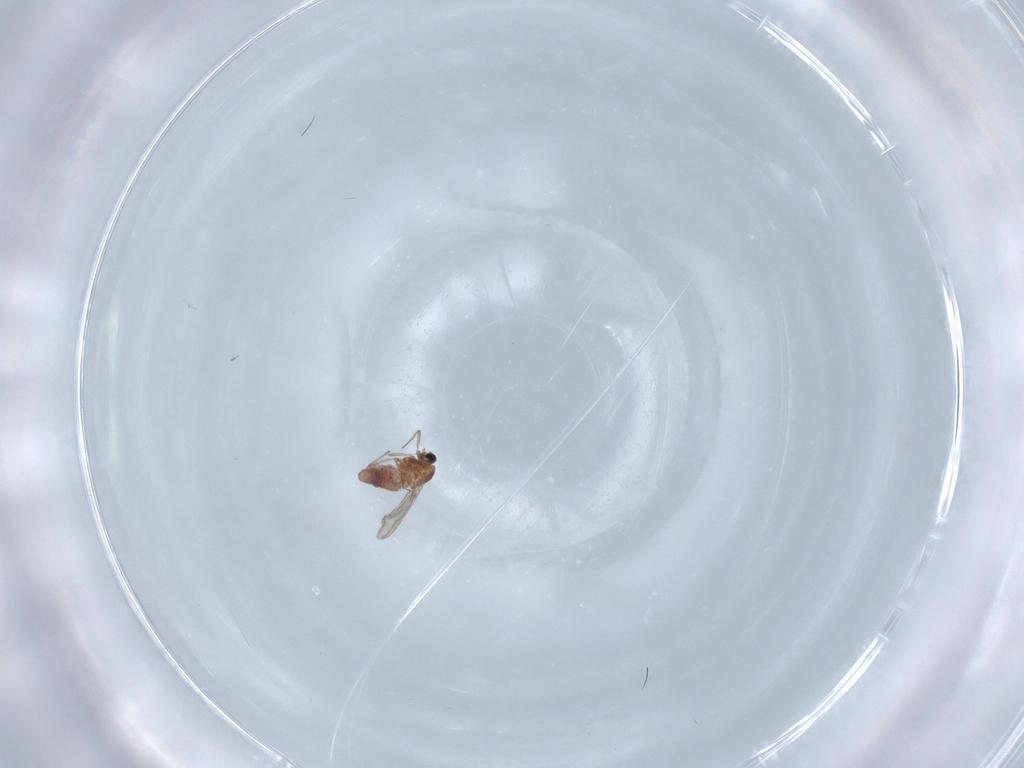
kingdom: Animalia
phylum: Arthropoda
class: Insecta
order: Diptera
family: Chironomidae
